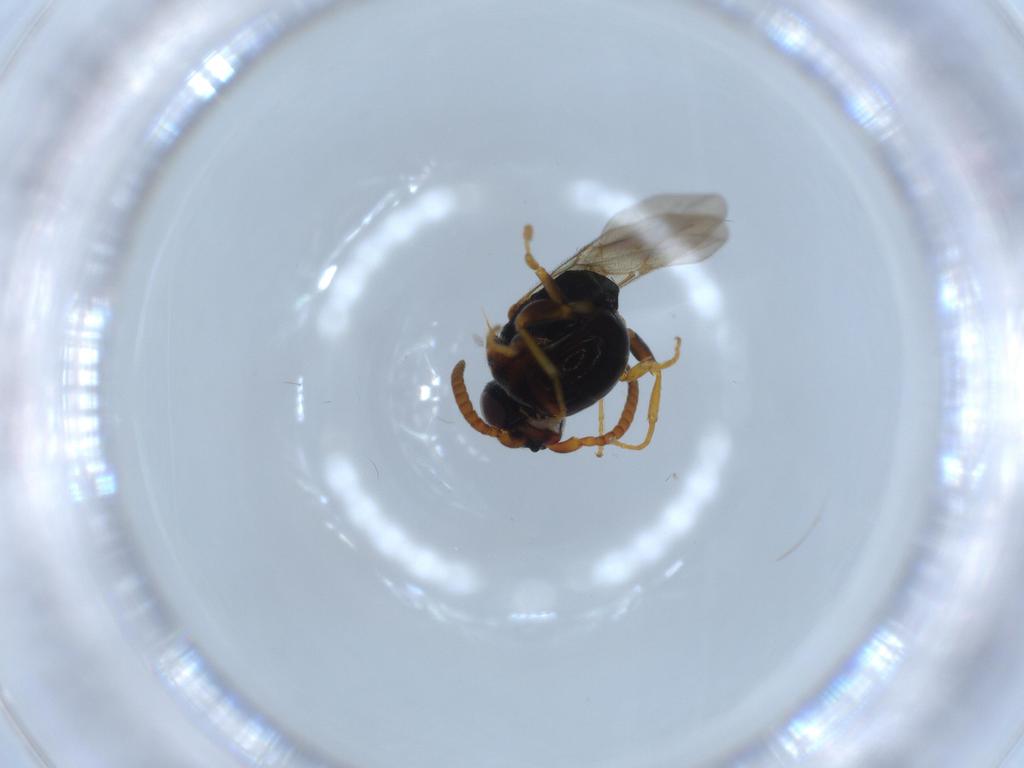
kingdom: Animalia
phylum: Arthropoda
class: Insecta
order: Hymenoptera
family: Bethylidae
